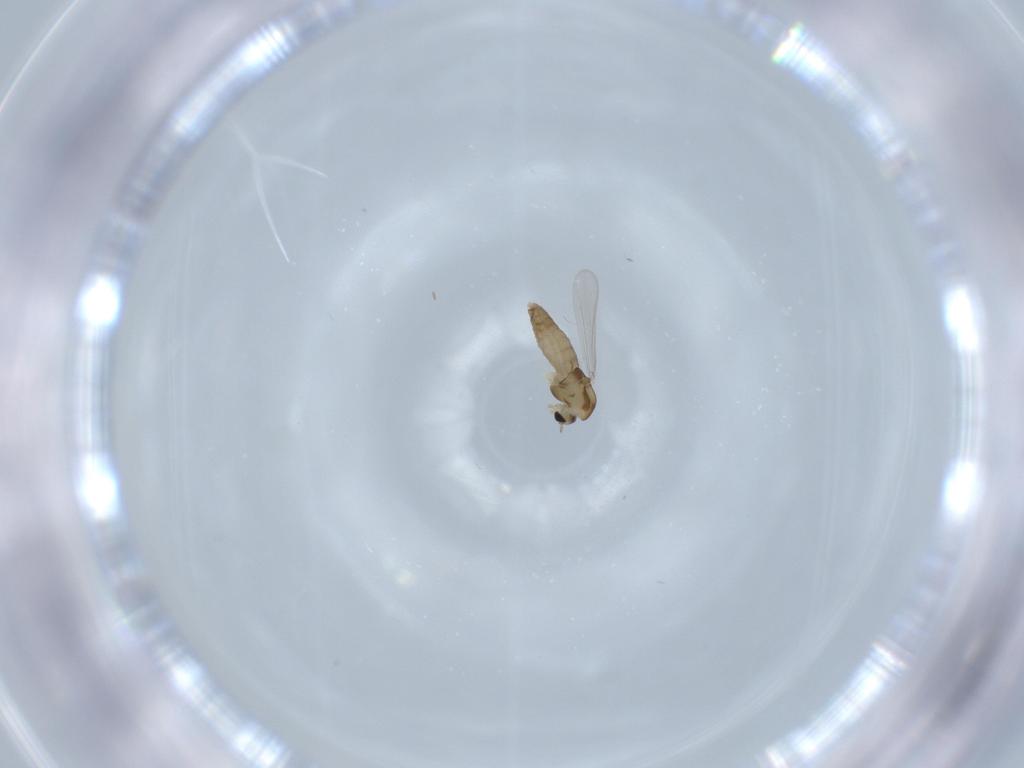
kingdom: Animalia
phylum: Arthropoda
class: Insecta
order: Diptera
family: Chironomidae
